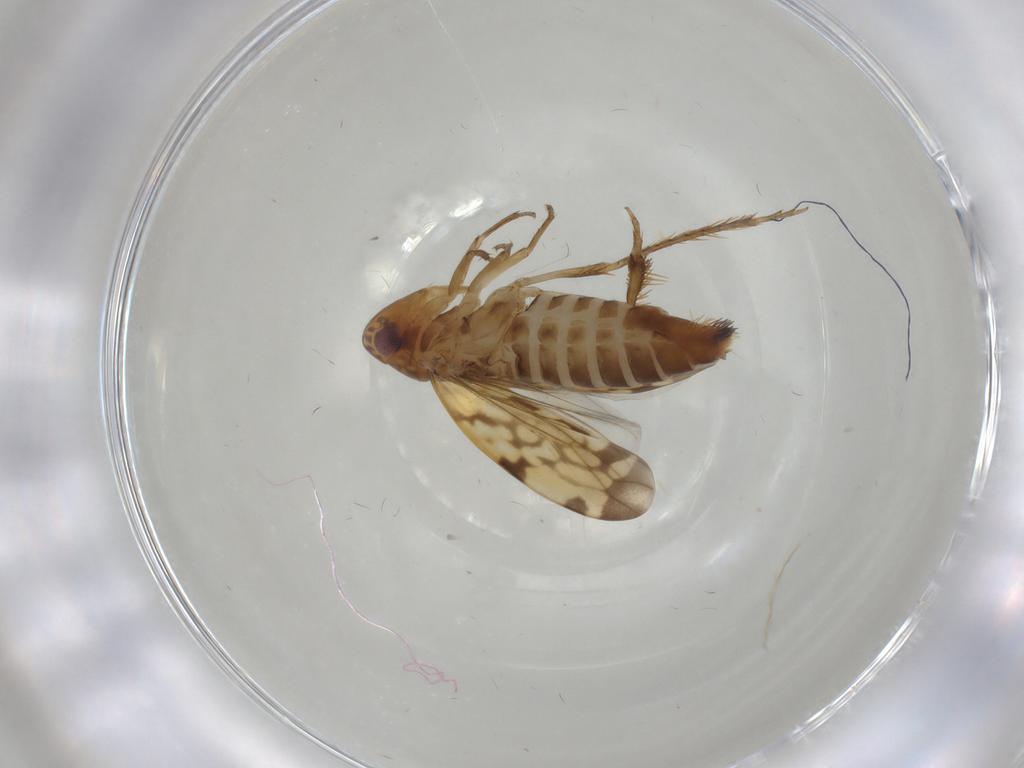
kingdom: Animalia
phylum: Arthropoda
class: Insecta
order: Hemiptera
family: Cicadellidae
